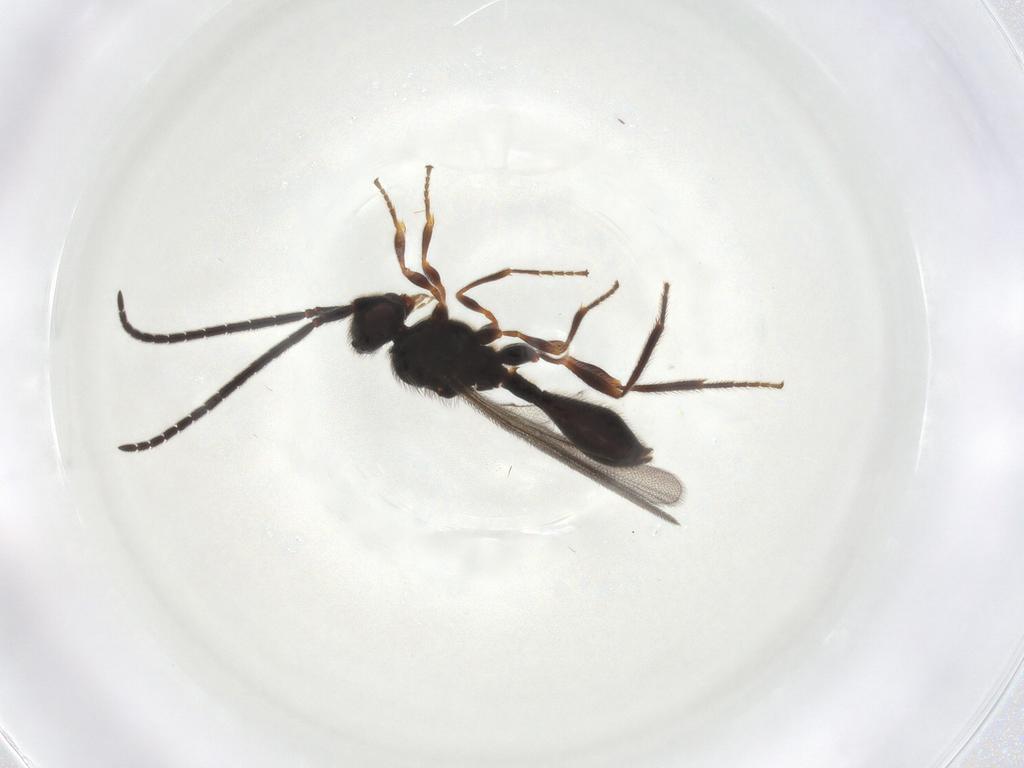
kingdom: Animalia
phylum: Arthropoda
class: Insecta
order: Hymenoptera
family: Diapriidae
